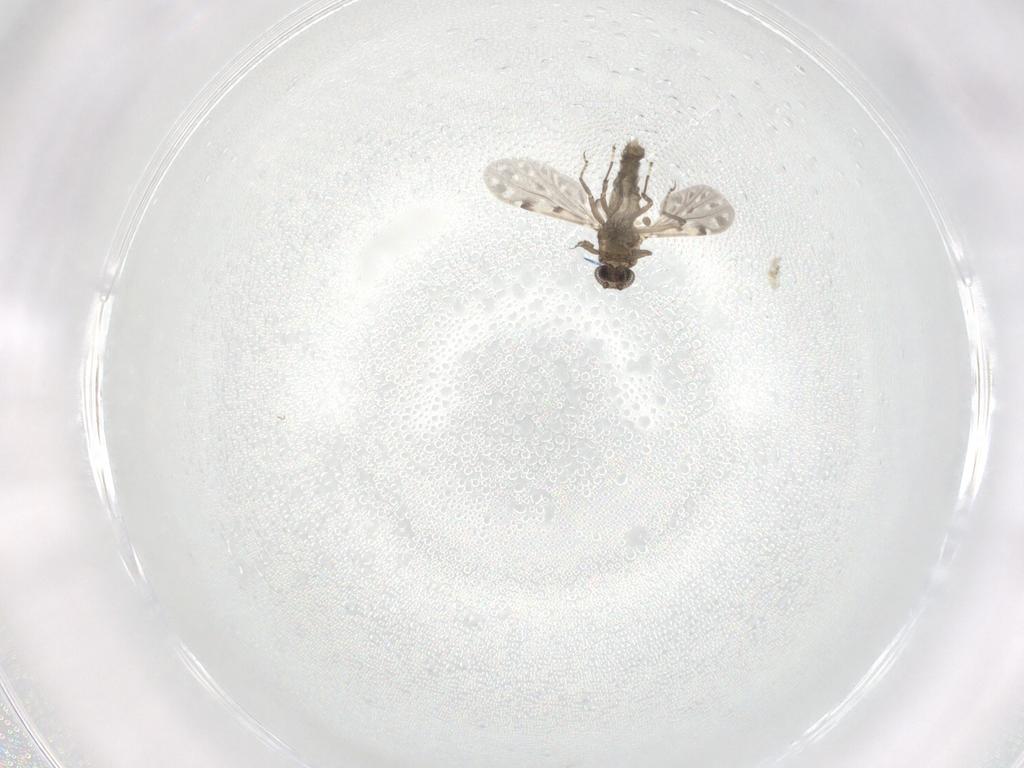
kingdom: Animalia
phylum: Arthropoda
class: Insecta
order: Diptera
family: Ceratopogonidae
